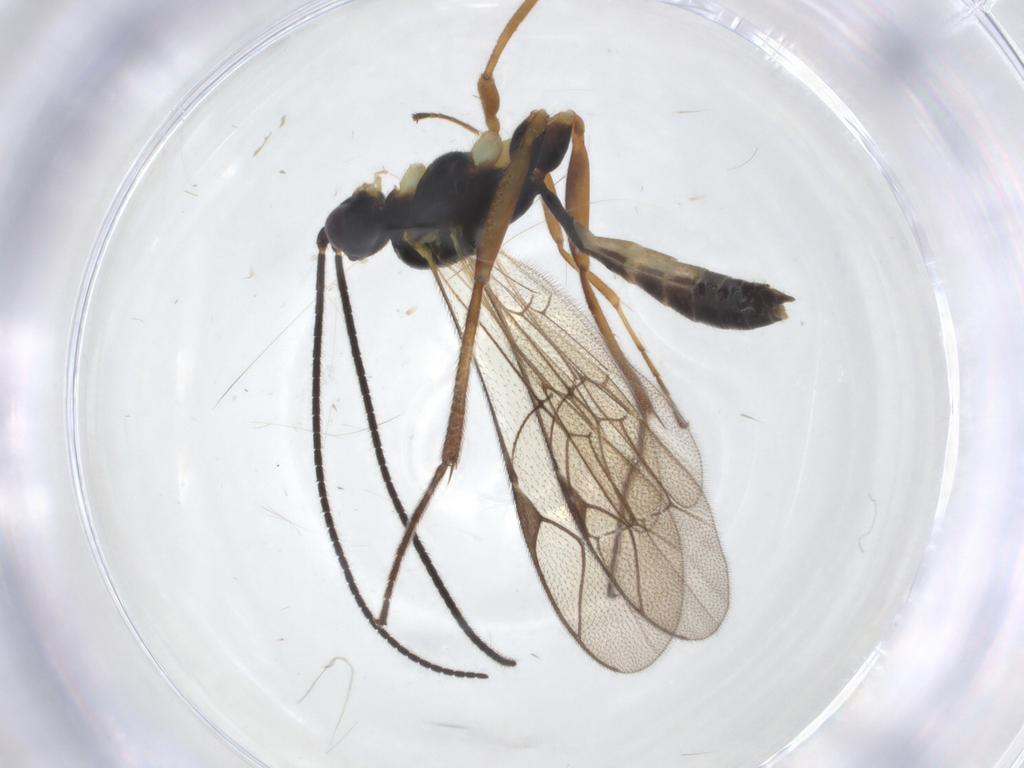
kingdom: Animalia
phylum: Arthropoda
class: Insecta
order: Hymenoptera
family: Ichneumonidae
